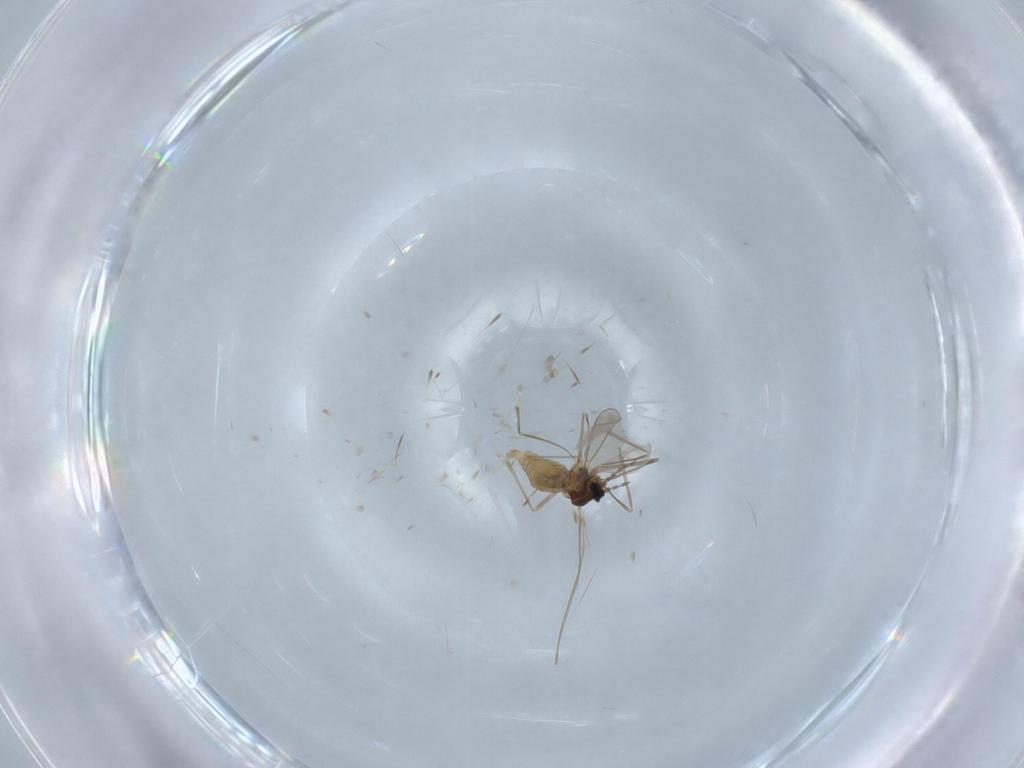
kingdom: Animalia
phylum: Arthropoda
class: Insecta
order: Diptera
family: Cecidomyiidae
